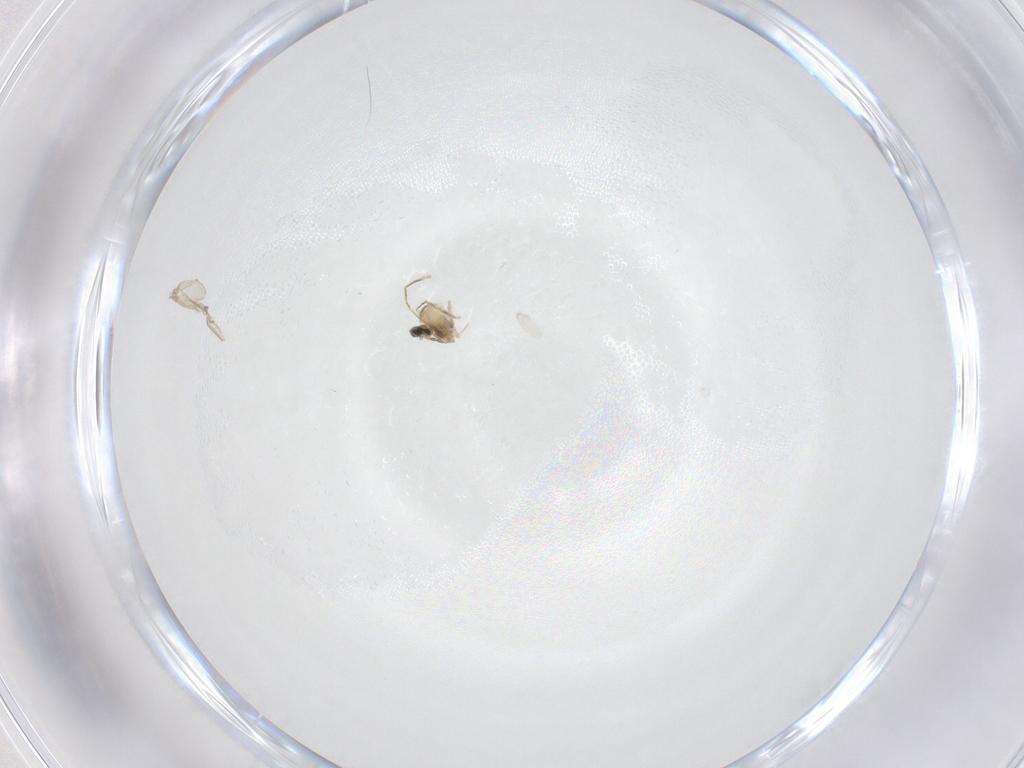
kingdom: Animalia
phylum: Arthropoda
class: Insecta
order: Diptera
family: Cecidomyiidae
